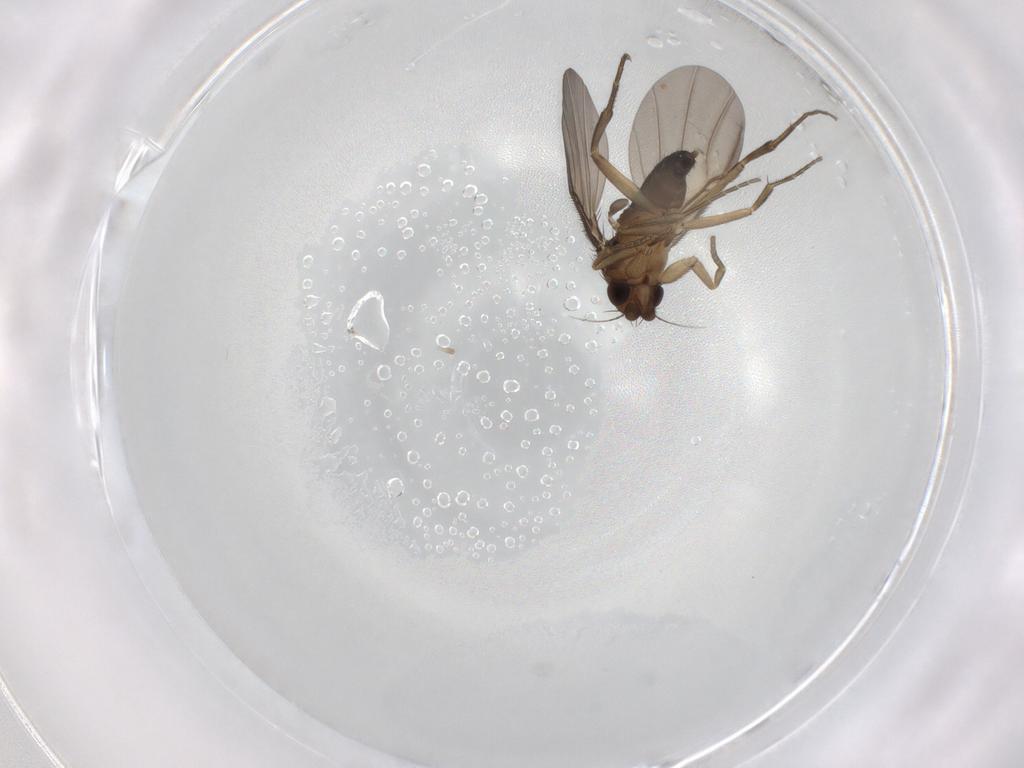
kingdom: Animalia
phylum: Arthropoda
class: Insecta
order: Diptera
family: Phoridae
